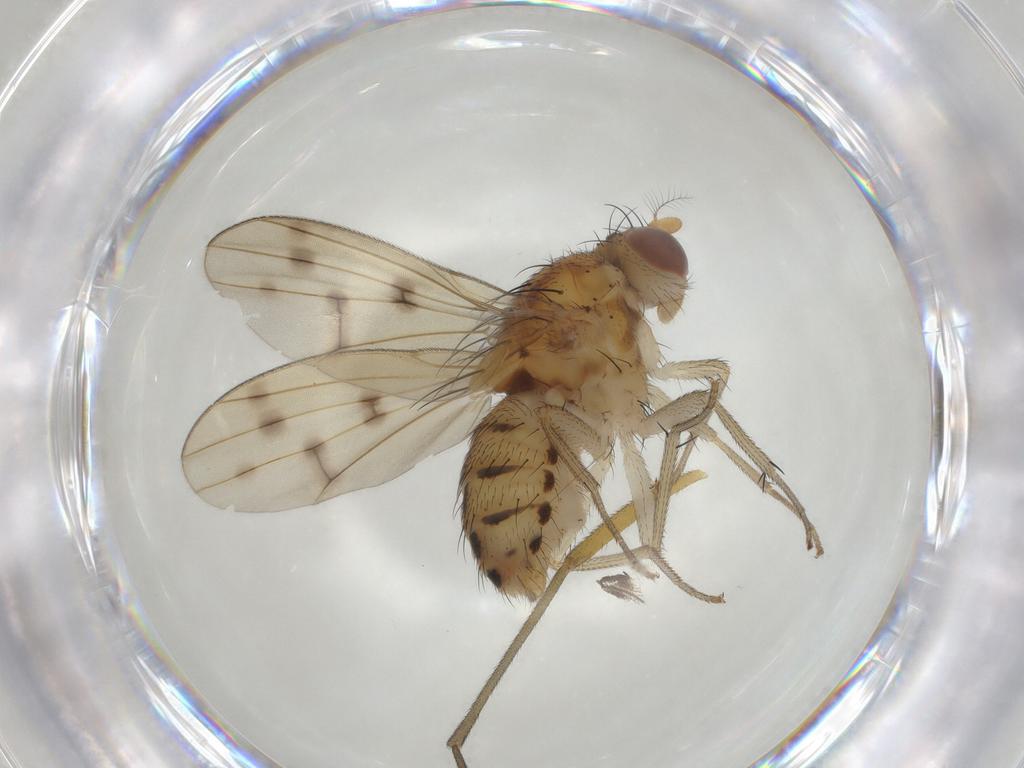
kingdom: Animalia
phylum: Arthropoda
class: Insecta
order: Diptera
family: Sciaridae
